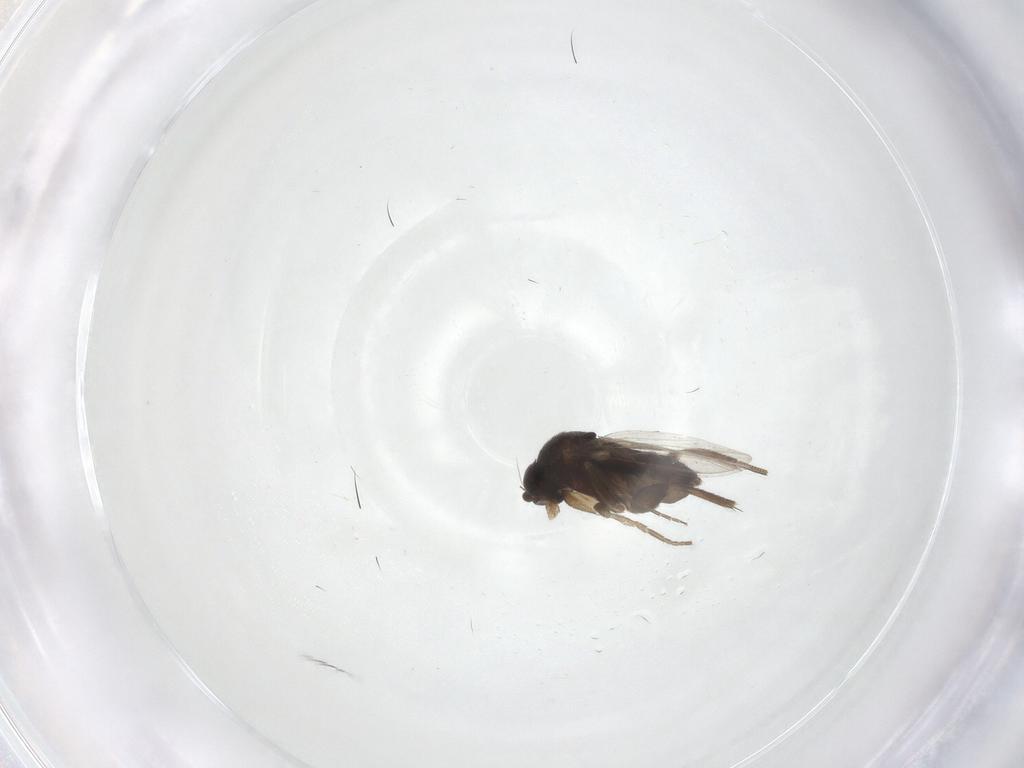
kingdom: Animalia
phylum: Arthropoda
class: Insecta
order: Diptera
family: Phoridae
